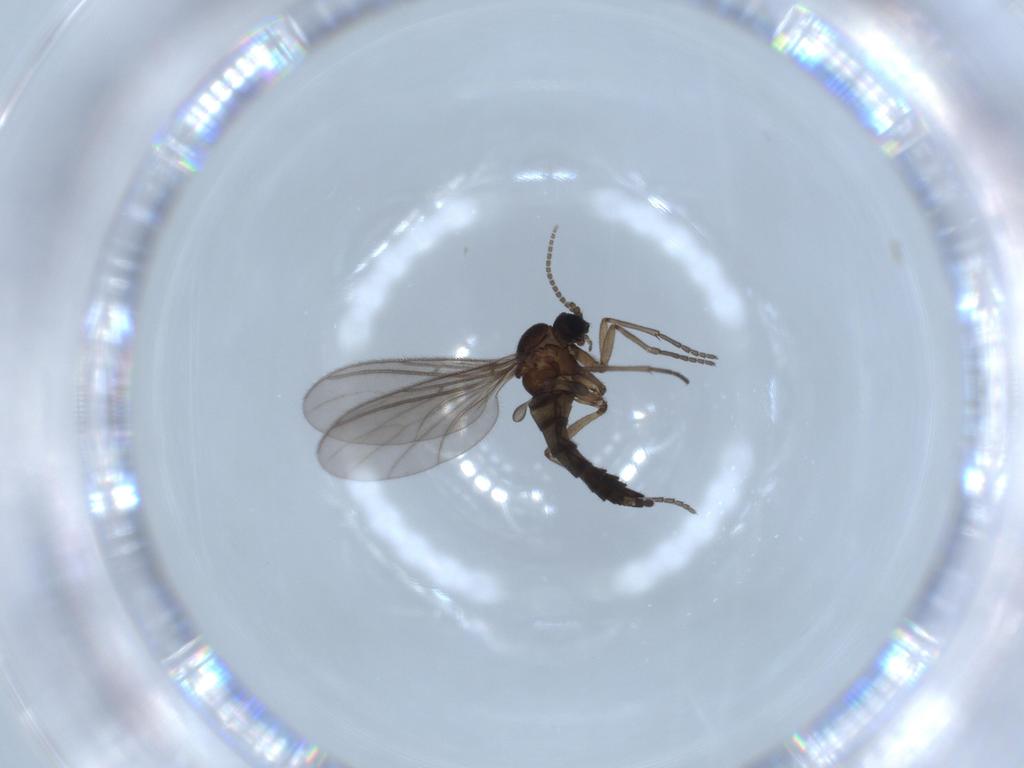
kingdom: Animalia
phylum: Arthropoda
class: Insecta
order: Diptera
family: Sciaridae
